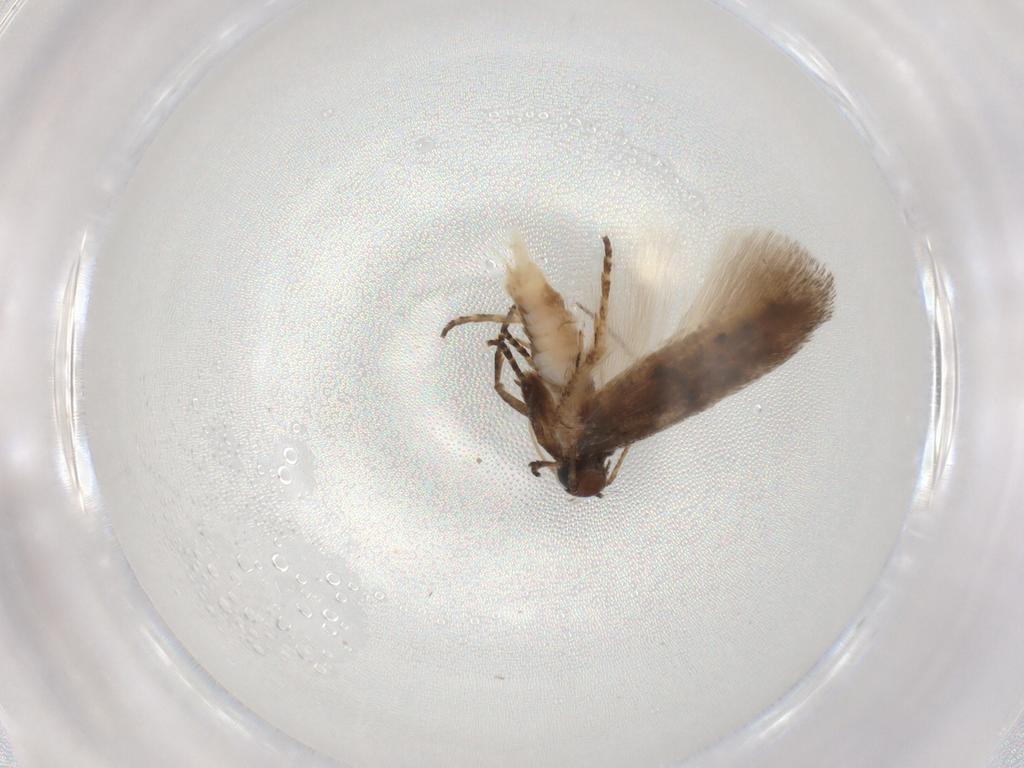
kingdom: Animalia
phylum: Arthropoda
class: Insecta
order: Lepidoptera
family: Gelechiidae
